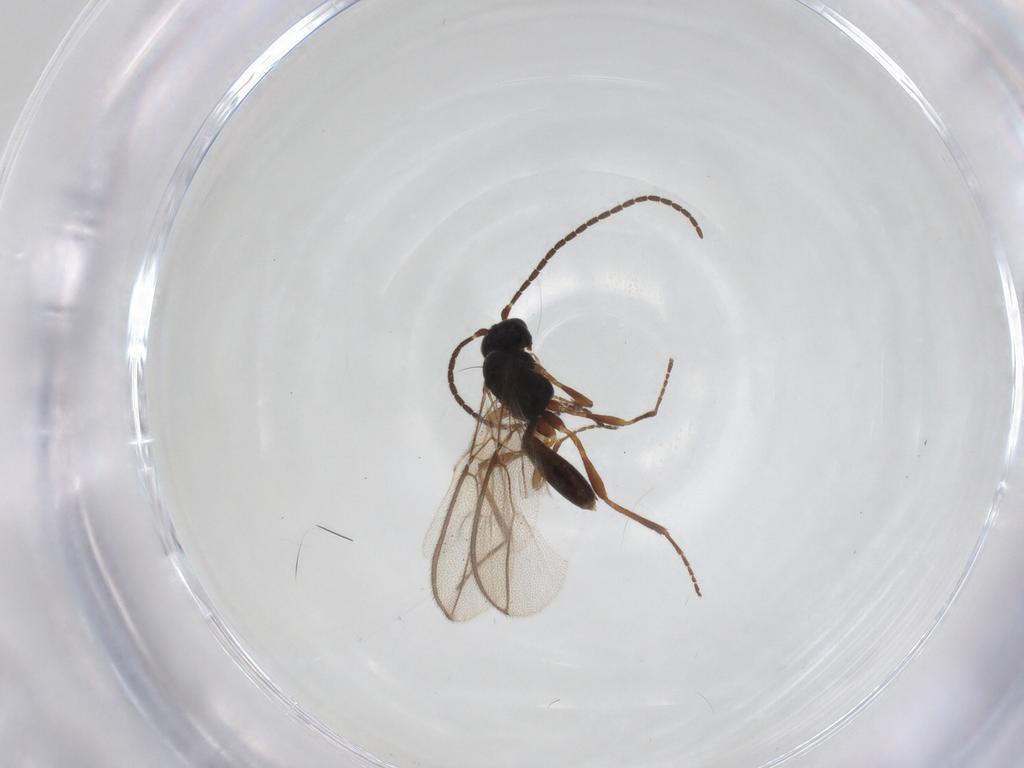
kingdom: Animalia
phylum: Arthropoda
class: Insecta
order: Hymenoptera
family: Braconidae
